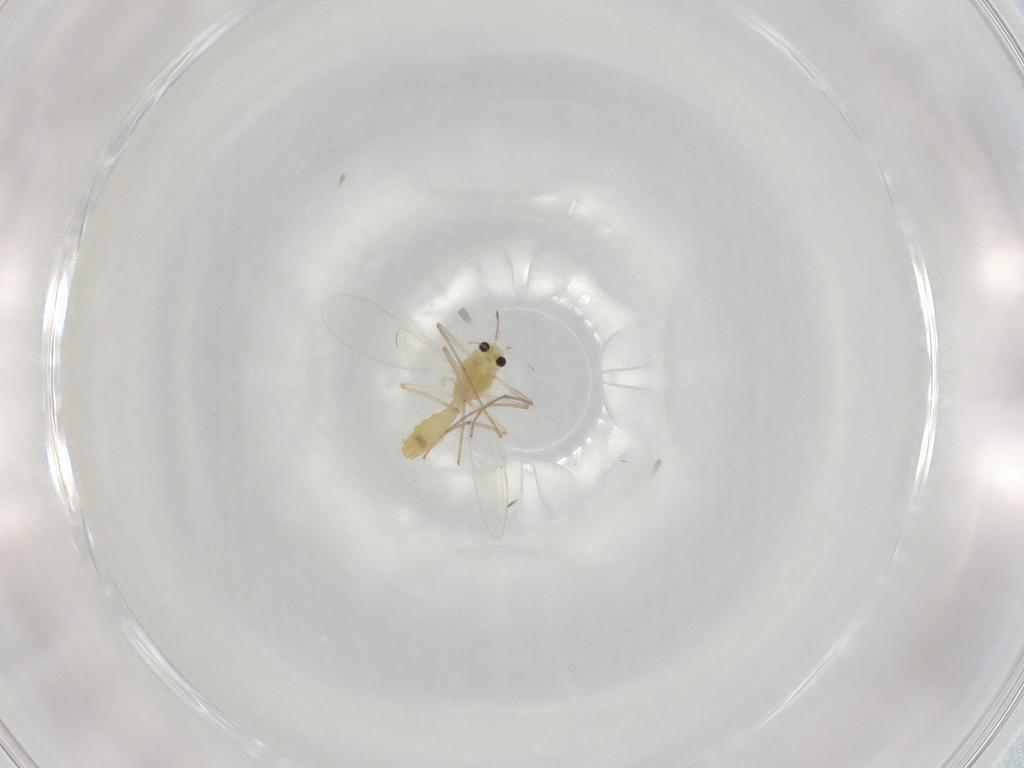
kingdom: Animalia
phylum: Arthropoda
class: Insecta
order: Diptera
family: Chironomidae
